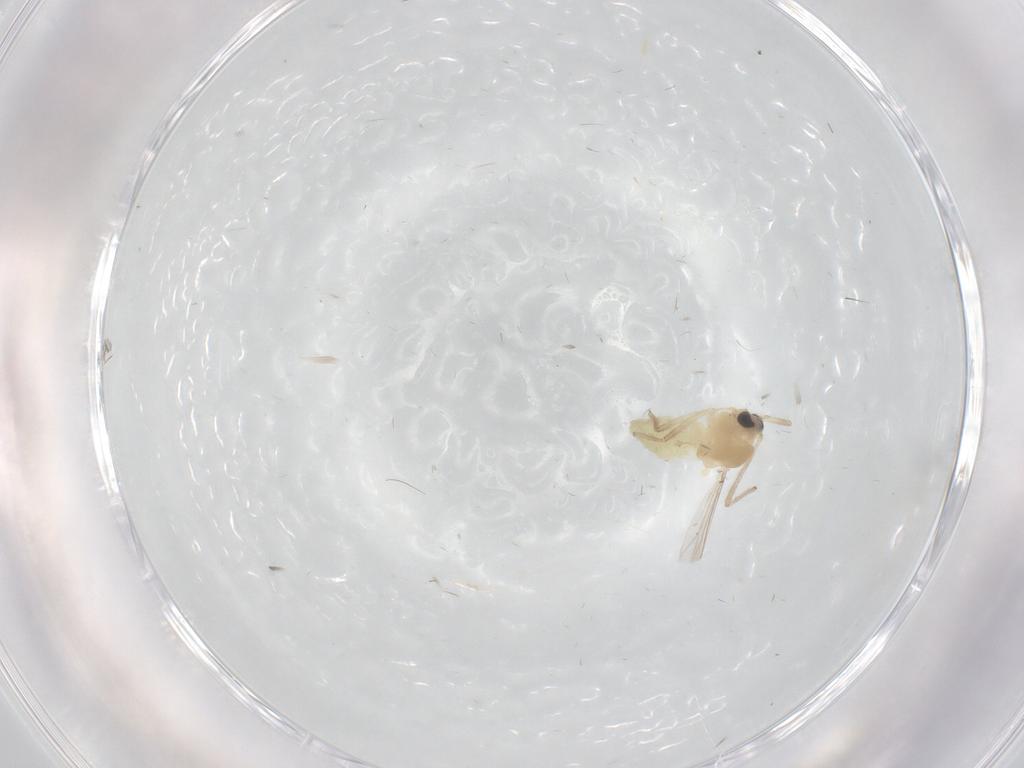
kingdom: Animalia
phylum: Arthropoda
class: Insecta
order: Diptera
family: Chironomidae
